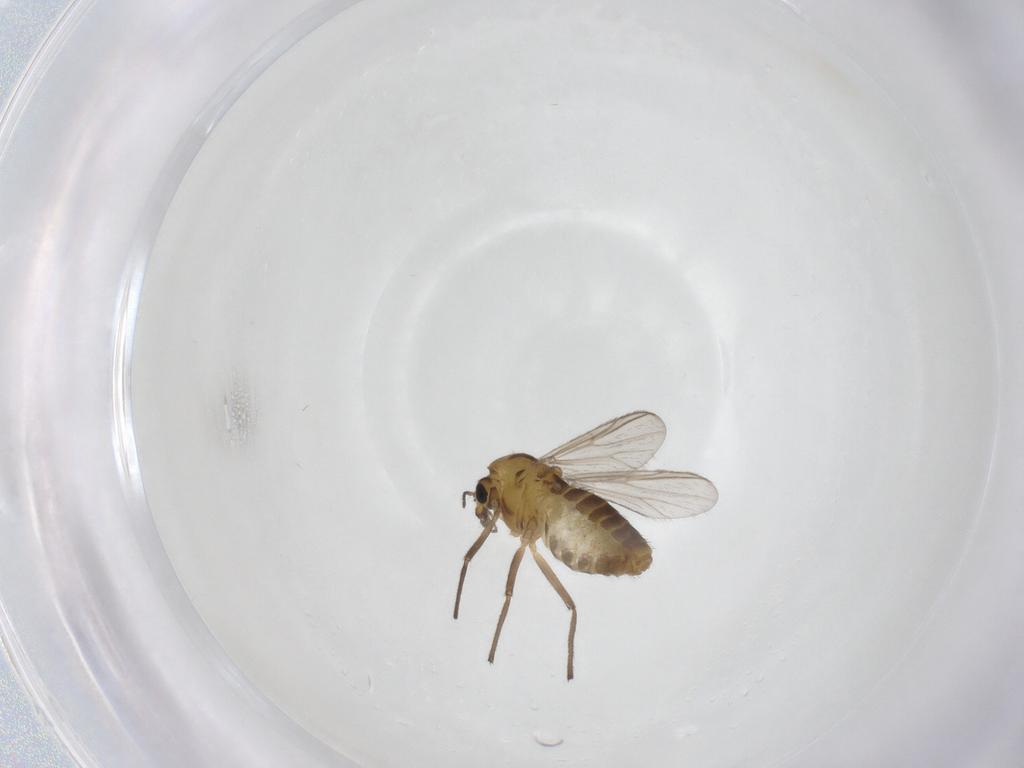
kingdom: Animalia
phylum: Arthropoda
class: Insecta
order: Diptera
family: Chironomidae
